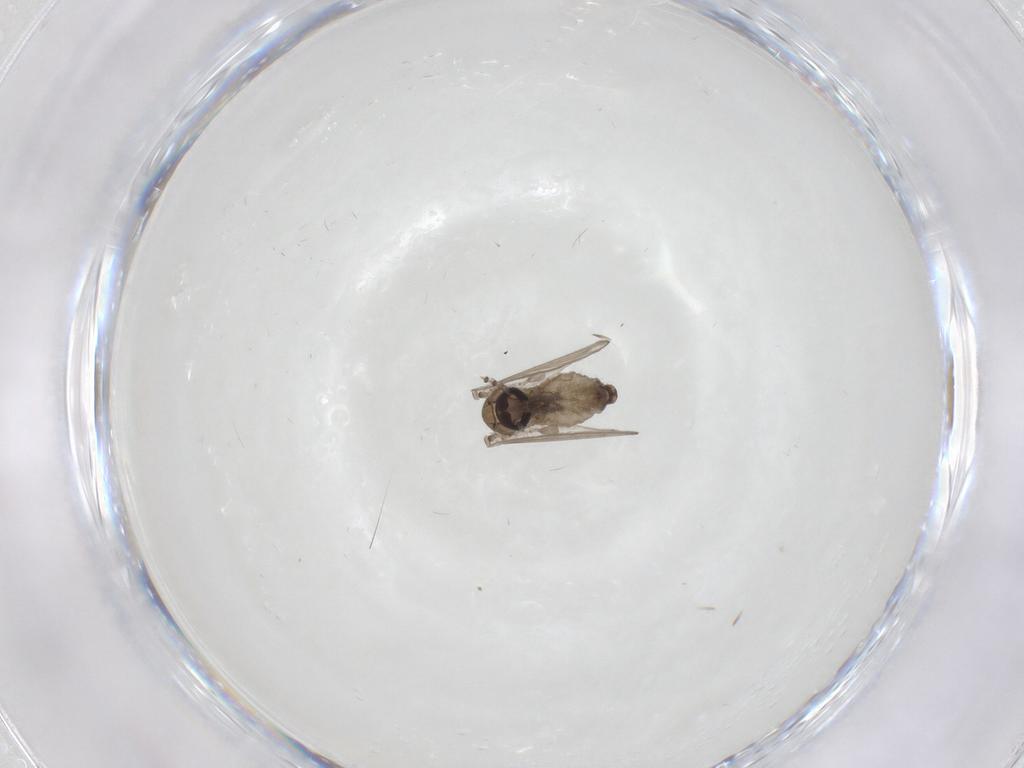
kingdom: Animalia
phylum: Arthropoda
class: Insecta
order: Diptera
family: Psychodidae
